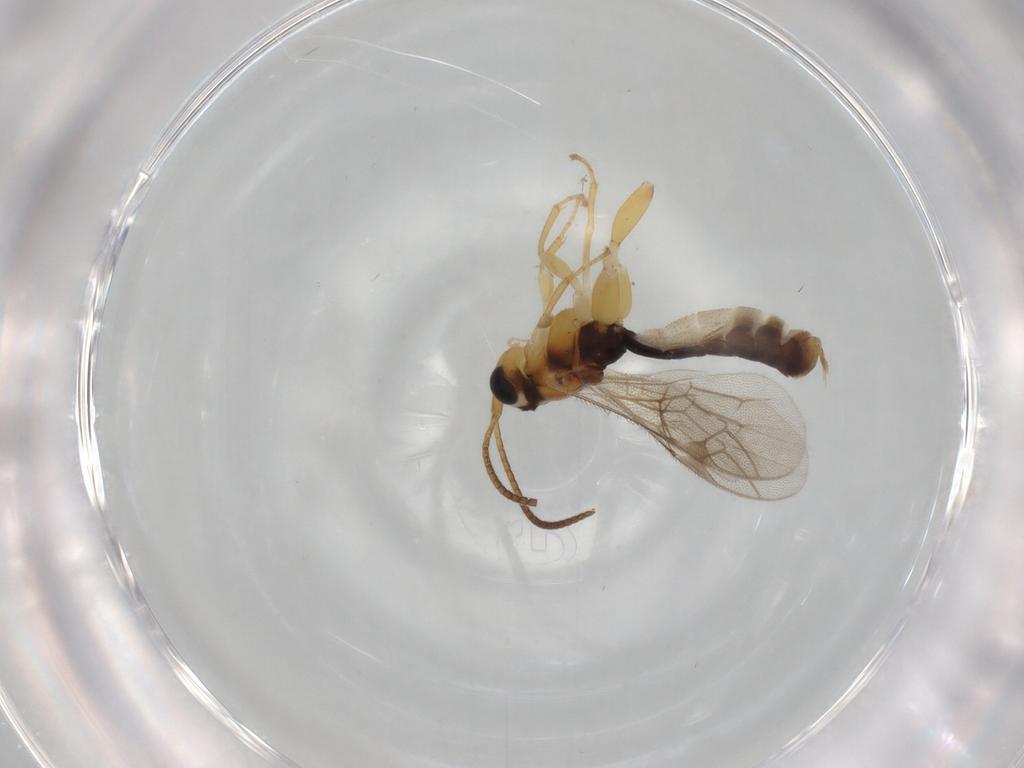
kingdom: Animalia
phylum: Arthropoda
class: Insecta
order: Hymenoptera
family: Ichneumonidae
